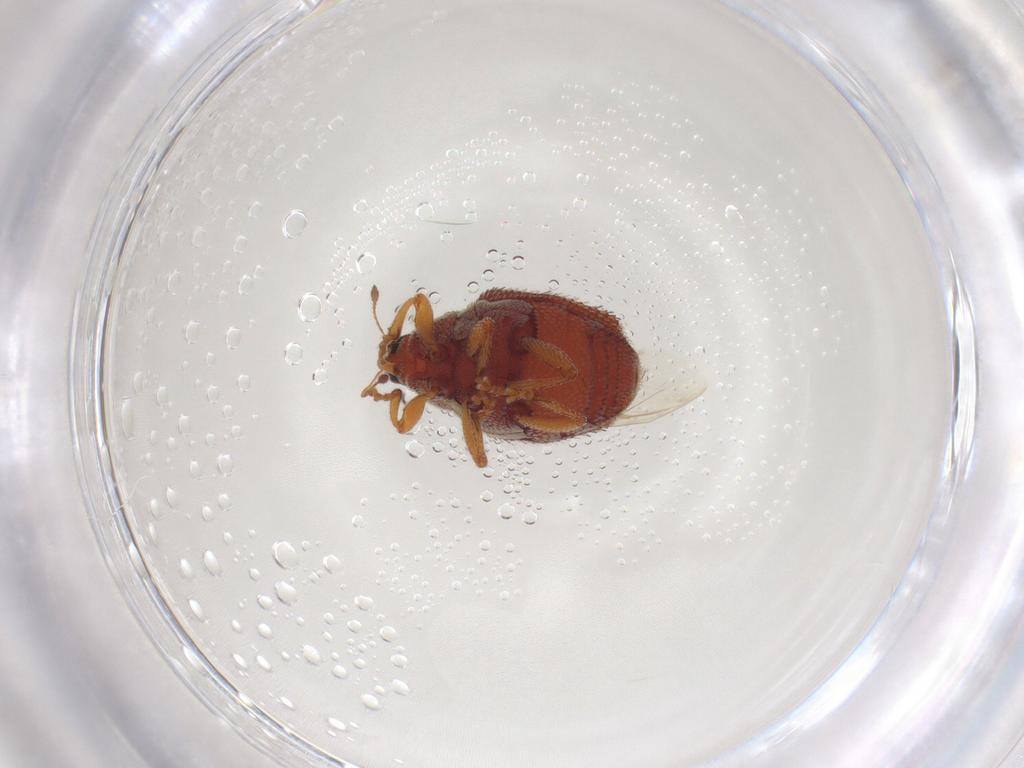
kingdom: Animalia
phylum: Arthropoda
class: Insecta
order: Coleoptera
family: Curculionidae
